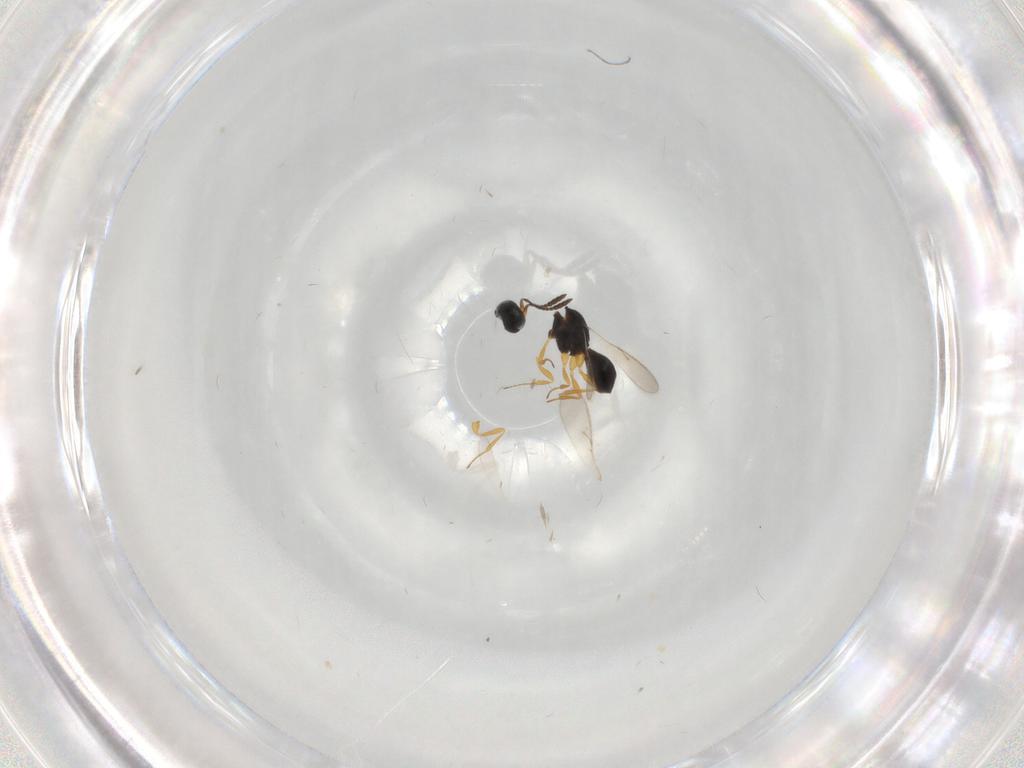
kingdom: Animalia
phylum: Arthropoda
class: Insecta
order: Hymenoptera
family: Scelionidae
